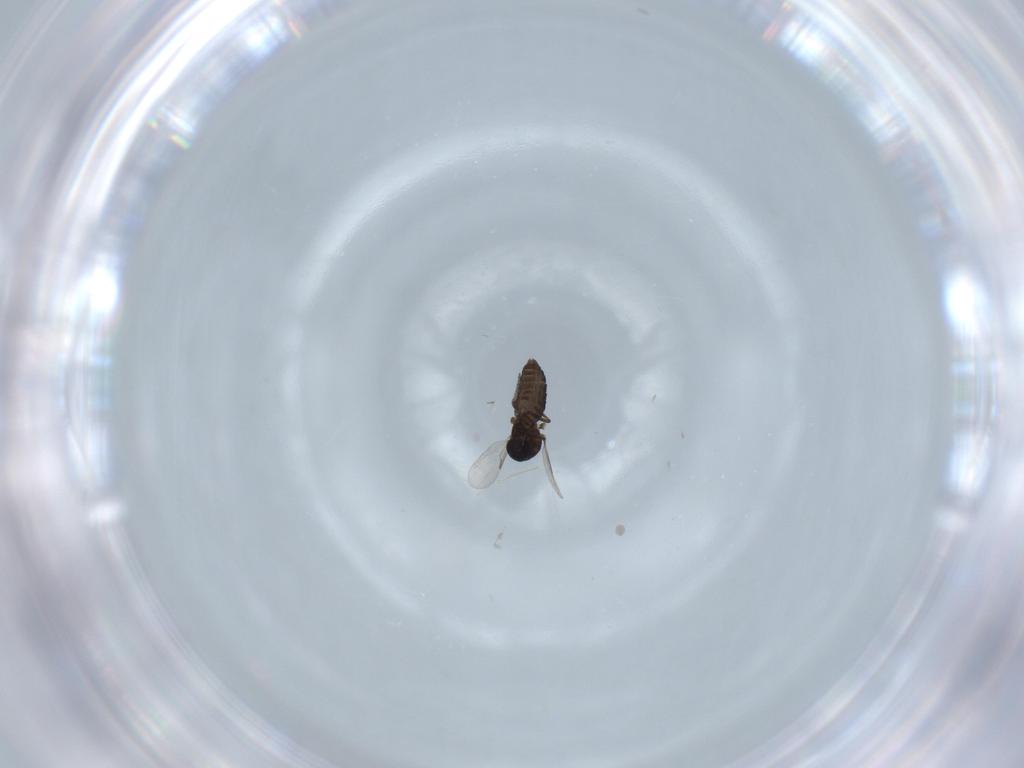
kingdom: Animalia
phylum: Arthropoda
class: Insecta
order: Diptera
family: Ceratopogonidae
